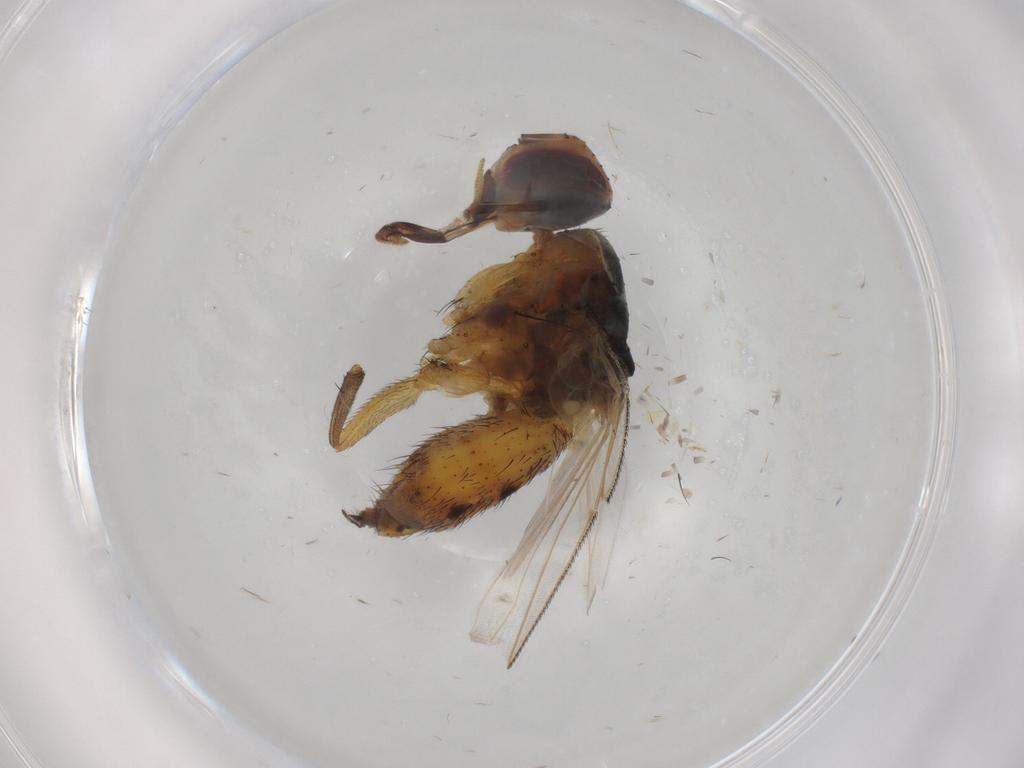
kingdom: Animalia
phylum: Arthropoda
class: Insecta
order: Diptera
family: Muscidae
